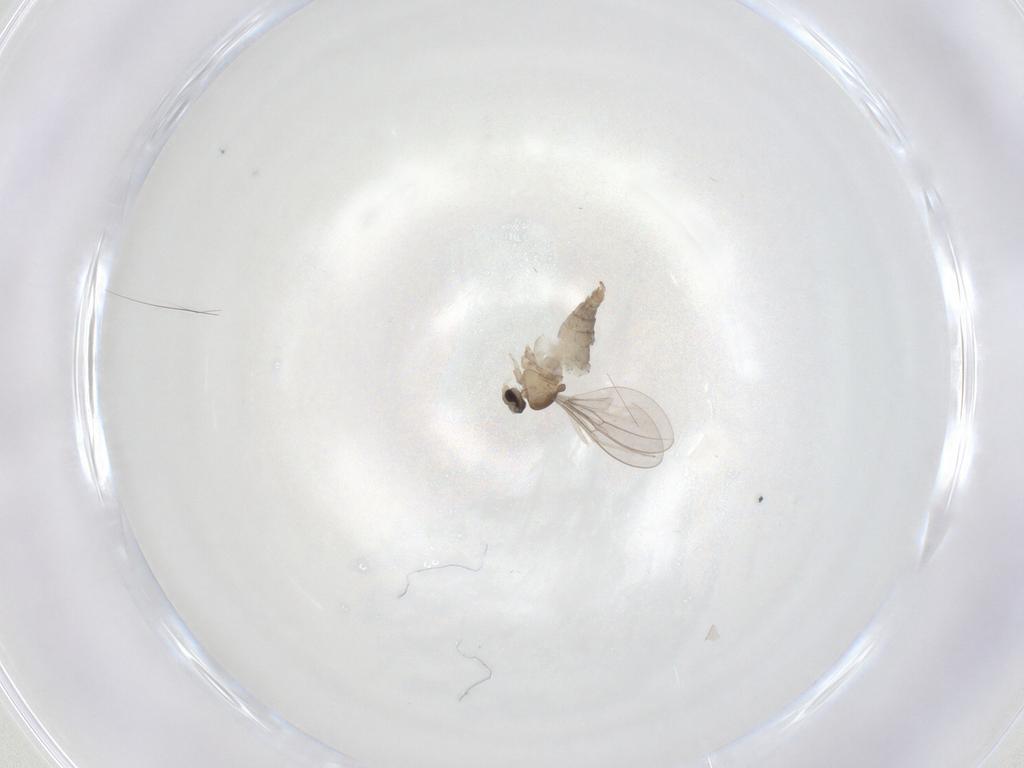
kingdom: Animalia
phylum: Arthropoda
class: Insecta
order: Diptera
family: Cecidomyiidae
